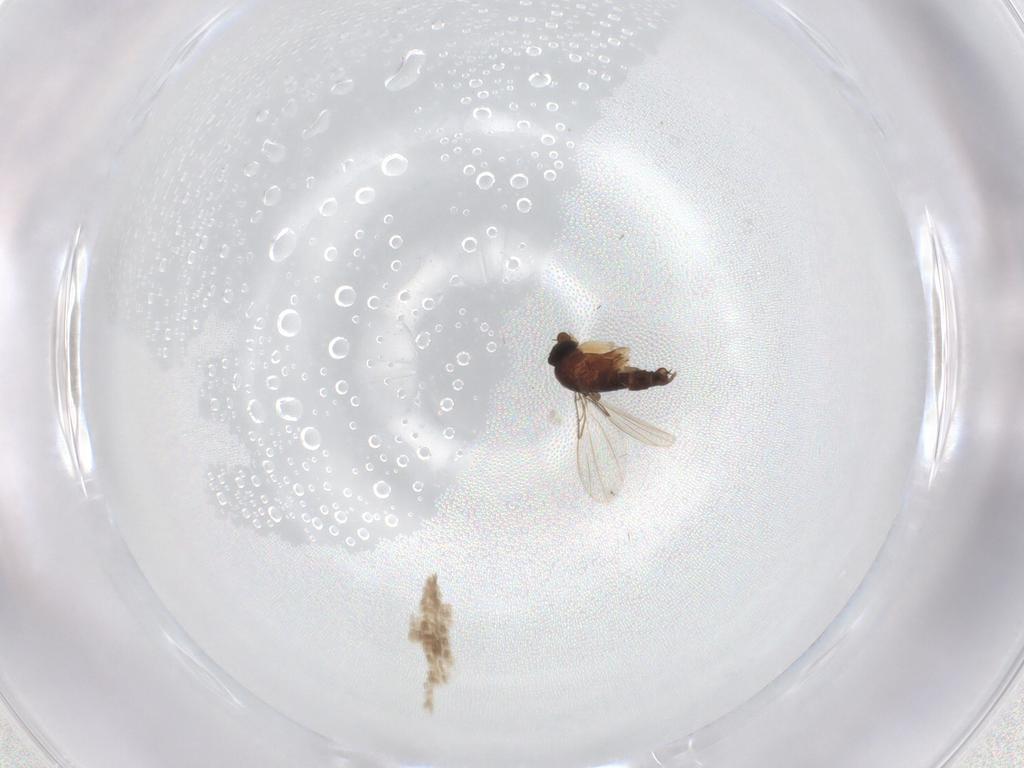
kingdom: Animalia
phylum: Arthropoda
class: Insecta
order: Diptera
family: Phoridae
